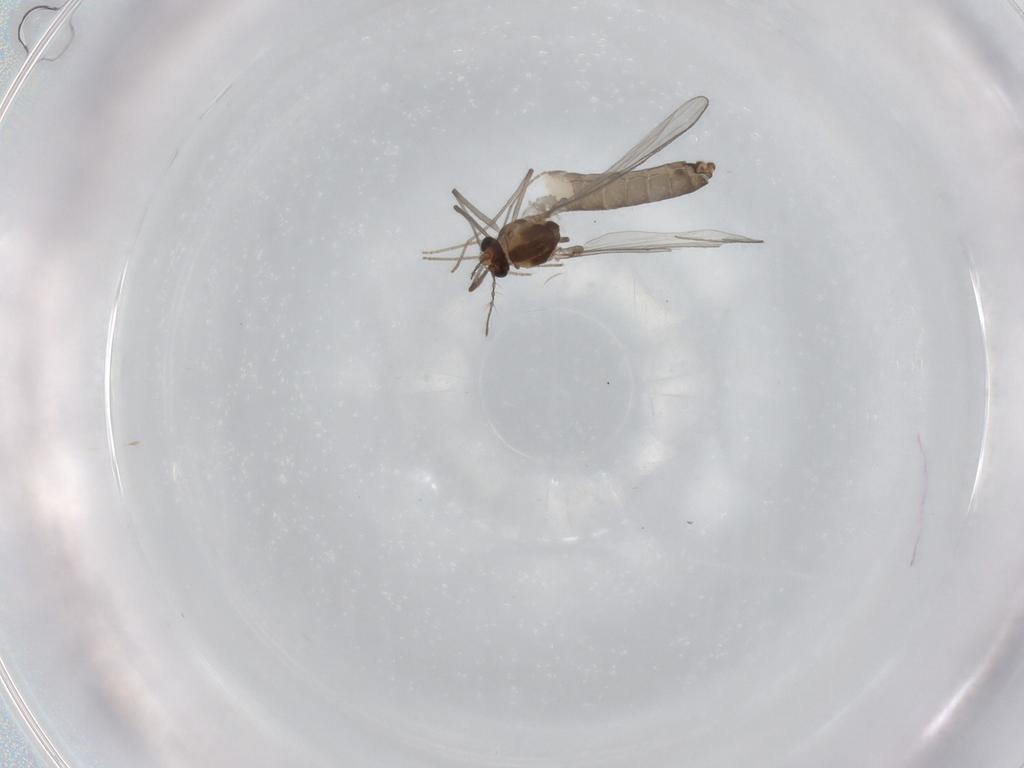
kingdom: Animalia
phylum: Arthropoda
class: Insecta
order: Diptera
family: Chironomidae
